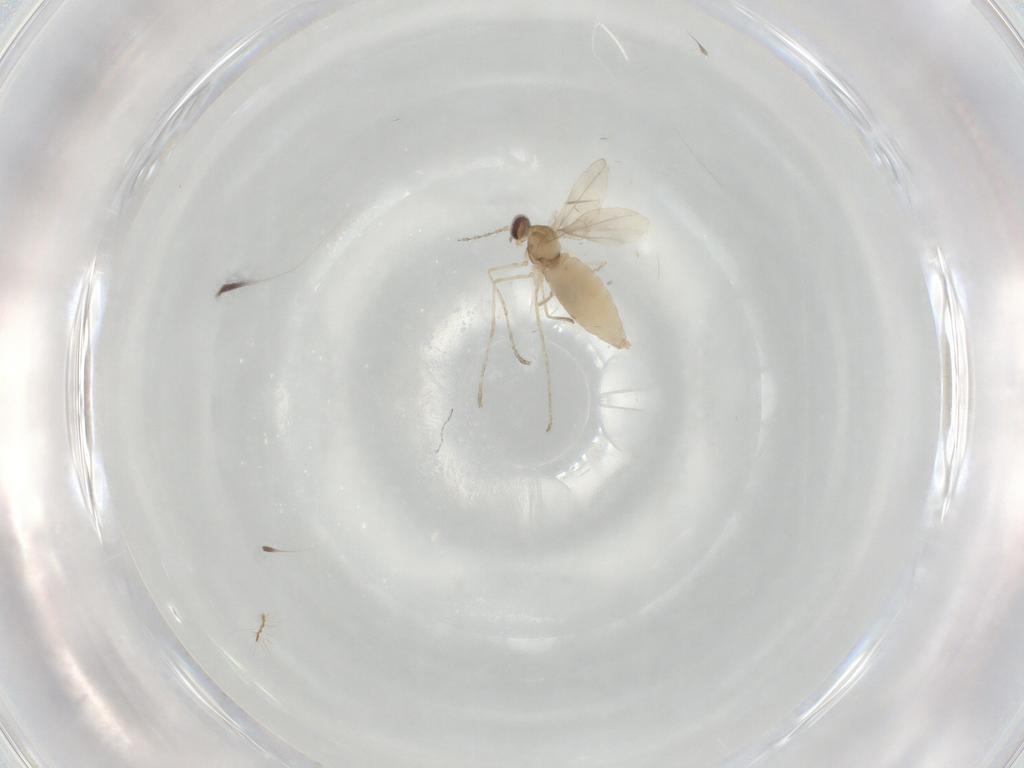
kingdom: Animalia
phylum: Arthropoda
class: Insecta
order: Diptera
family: Cecidomyiidae
